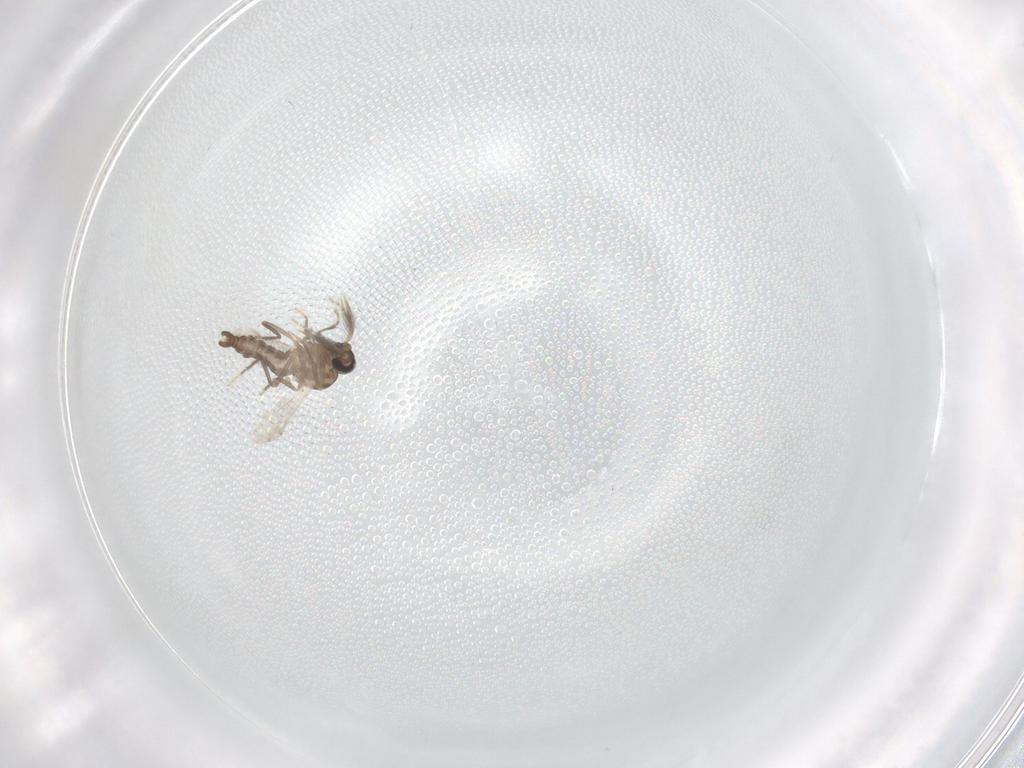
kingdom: Animalia
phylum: Arthropoda
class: Insecta
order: Diptera
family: Ceratopogonidae
